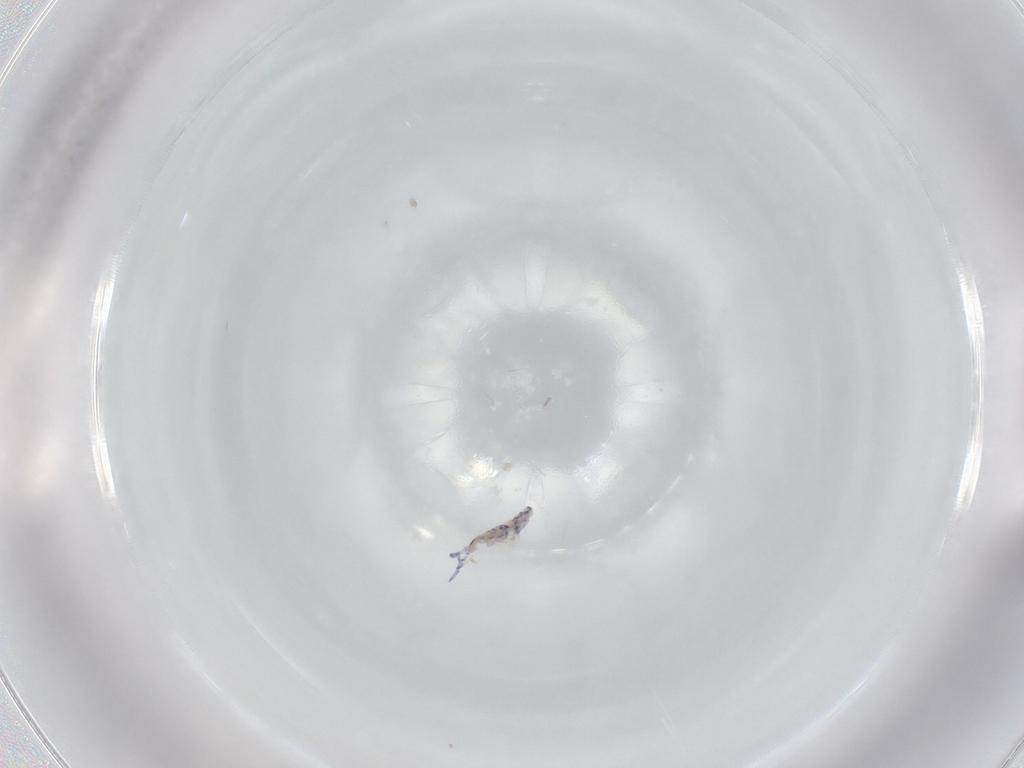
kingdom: Animalia
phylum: Arthropoda
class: Collembola
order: Entomobryomorpha
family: Entomobryidae
